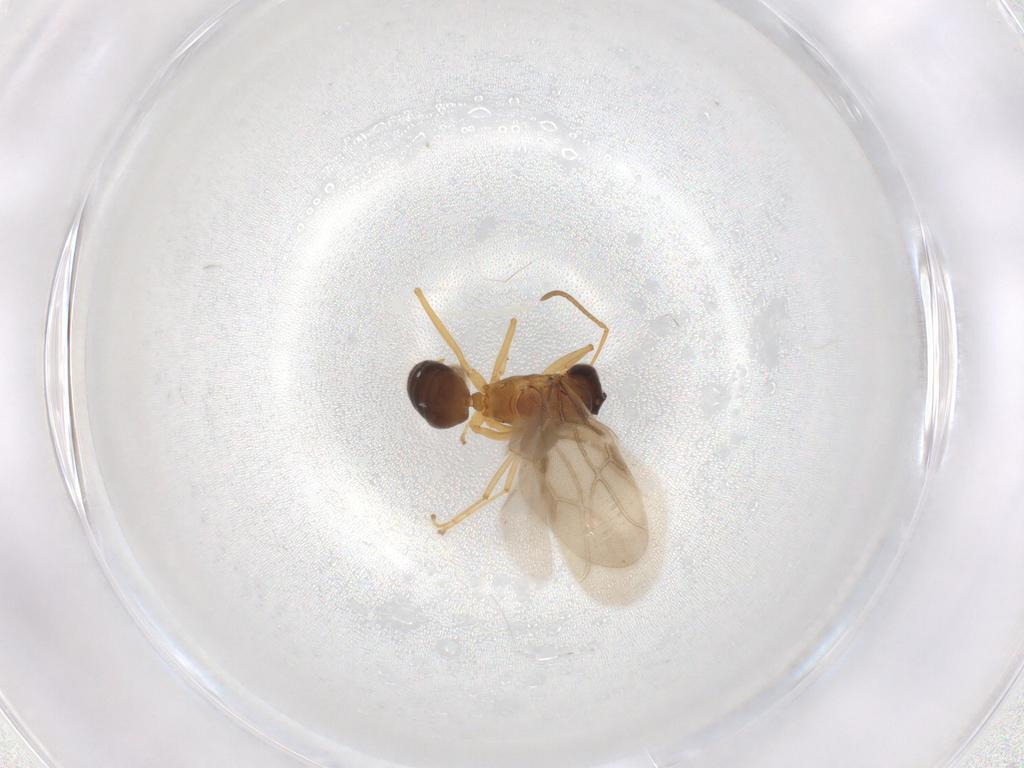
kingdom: Animalia
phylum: Arthropoda
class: Insecta
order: Hymenoptera
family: Formicidae
